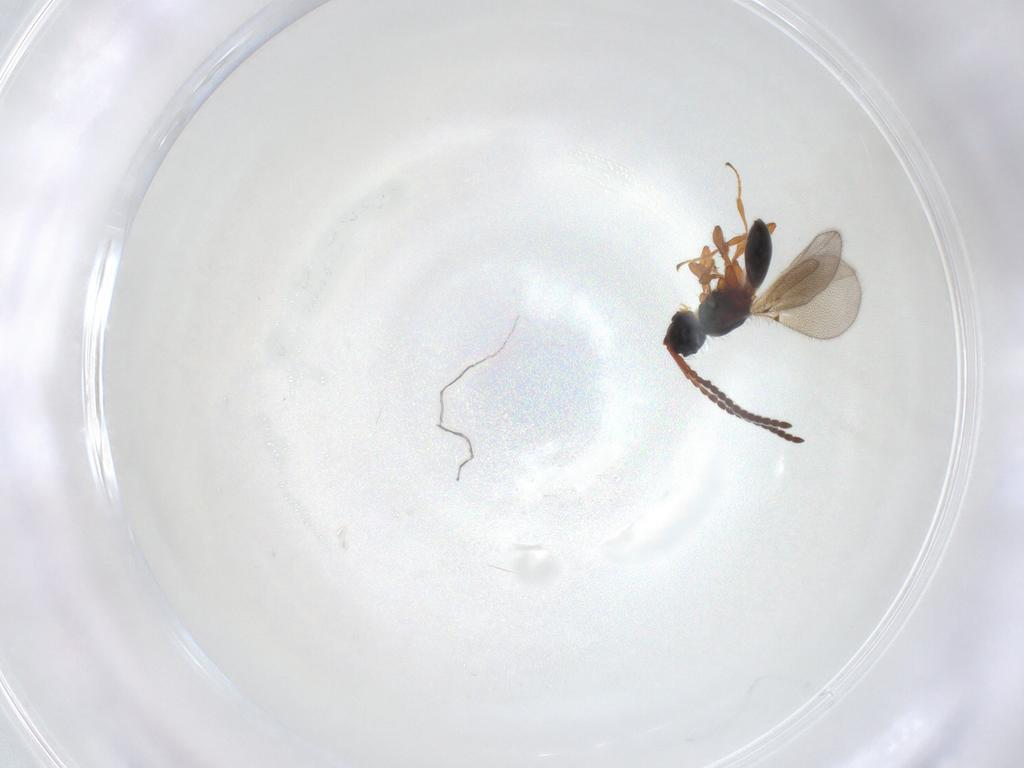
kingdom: Animalia
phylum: Arthropoda
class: Insecta
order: Hymenoptera
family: Diapriidae
